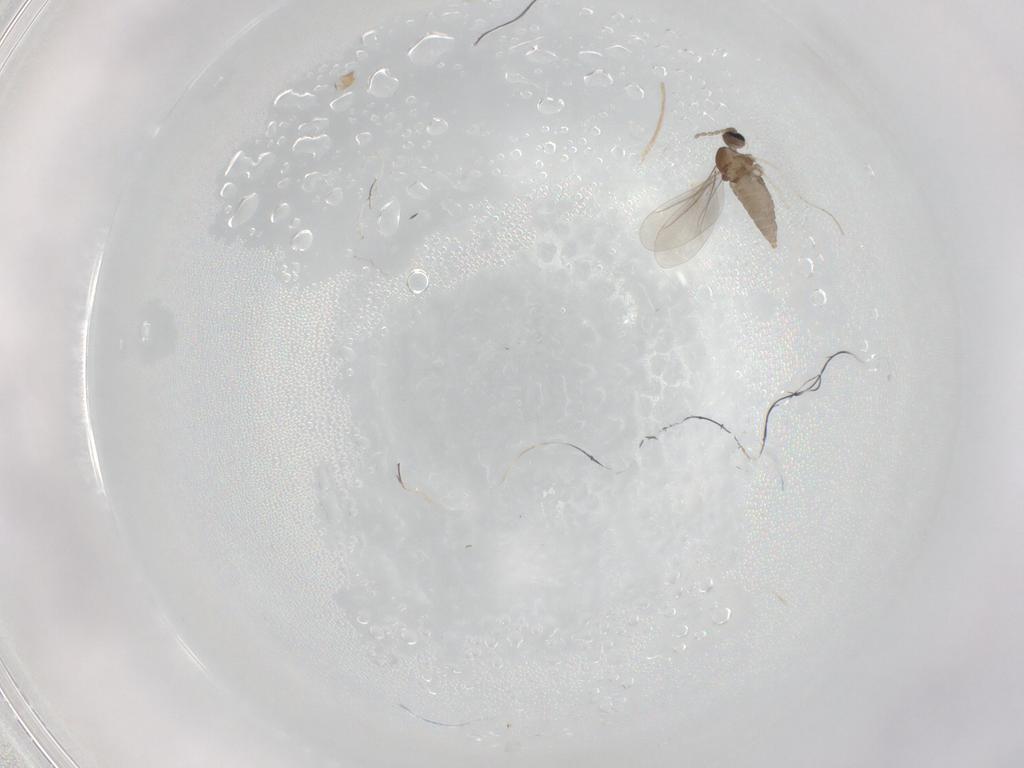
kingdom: Animalia
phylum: Arthropoda
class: Insecta
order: Diptera
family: Cecidomyiidae
